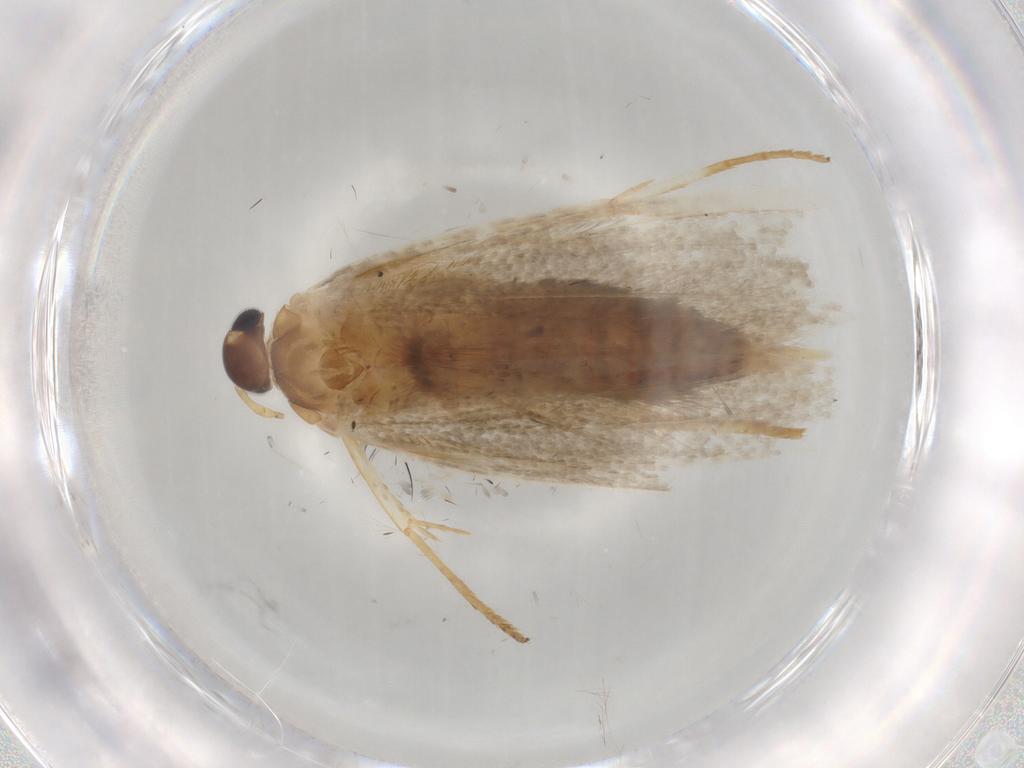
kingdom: Animalia
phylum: Arthropoda
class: Insecta
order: Lepidoptera
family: Blastobasidae
